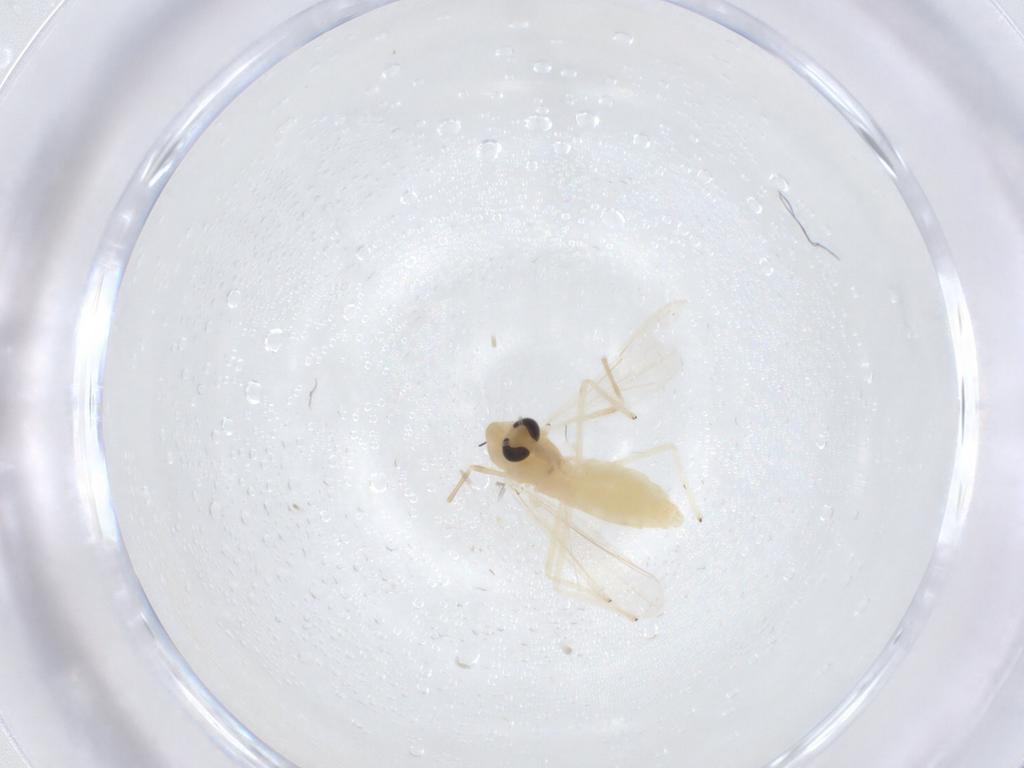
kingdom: Animalia
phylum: Arthropoda
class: Insecta
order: Diptera
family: Chironomidae
